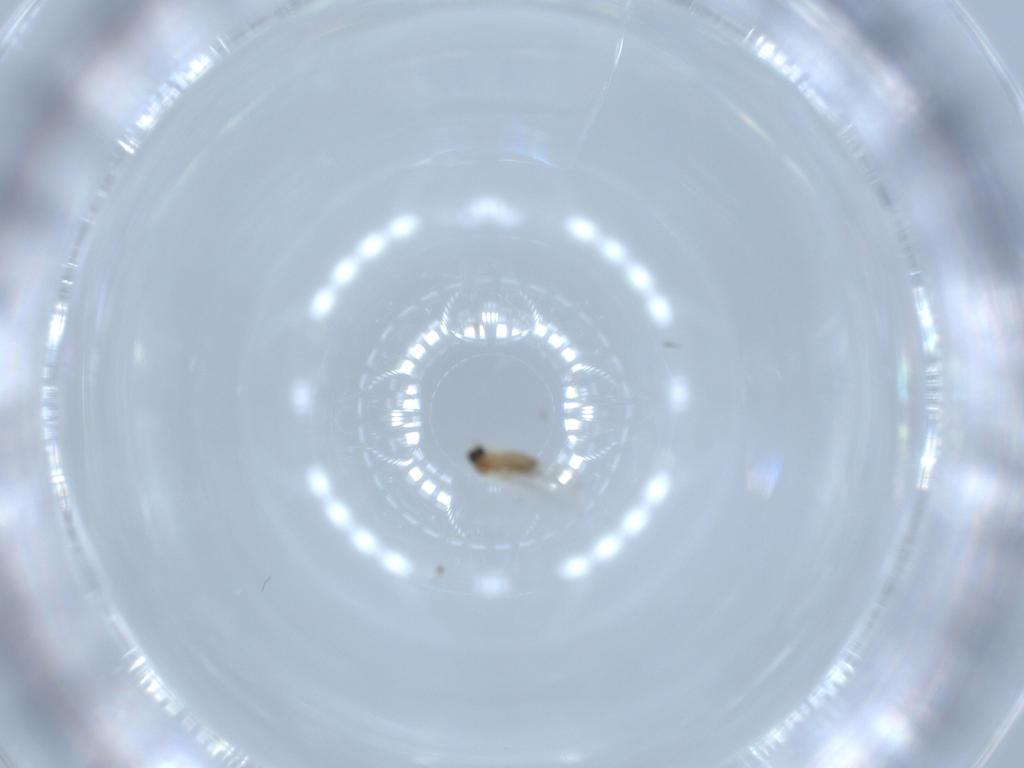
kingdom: Animalia
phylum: Arthropoda
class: Insecta
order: Diptera
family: Cecidomyiidae
